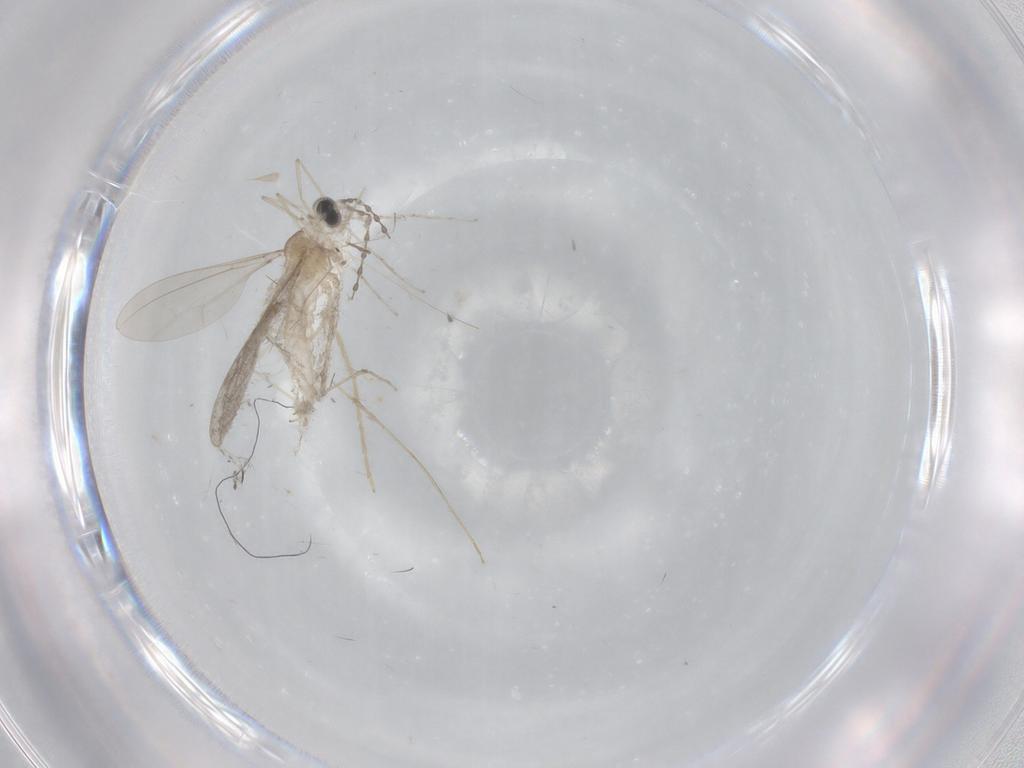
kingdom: Animalia
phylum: Arthropoda
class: Insecta
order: Diptera
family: Cecidomyiidae
